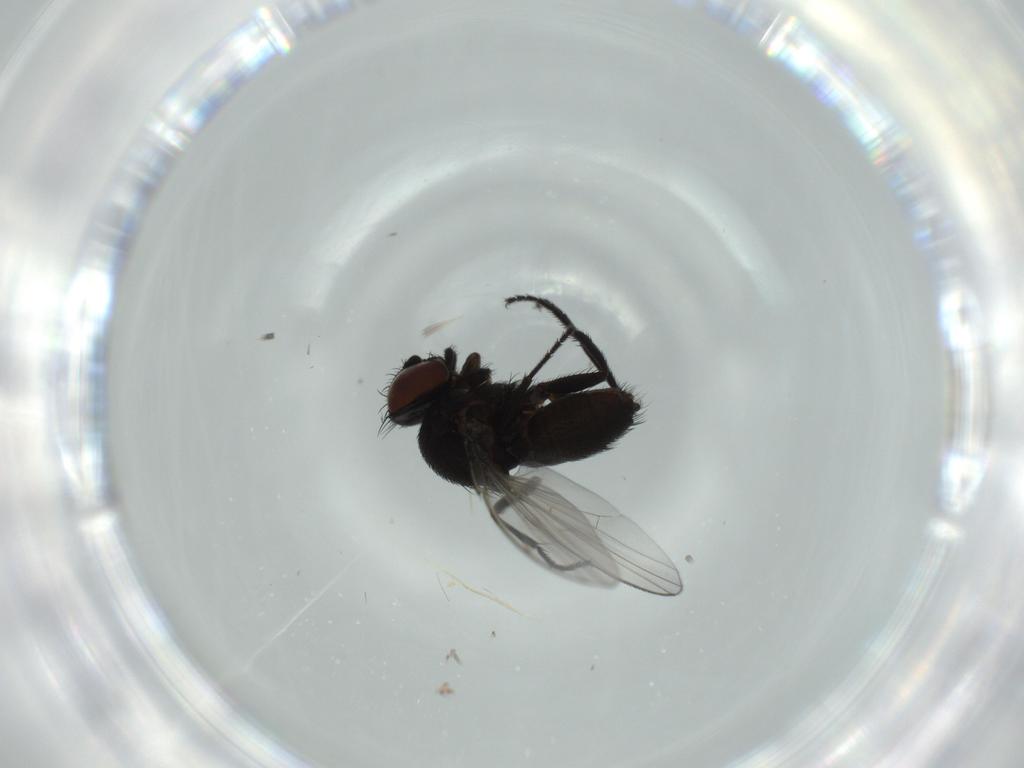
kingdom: Animalia
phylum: Arthropoda
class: Insecta
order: Diptera
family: Milichiidae
